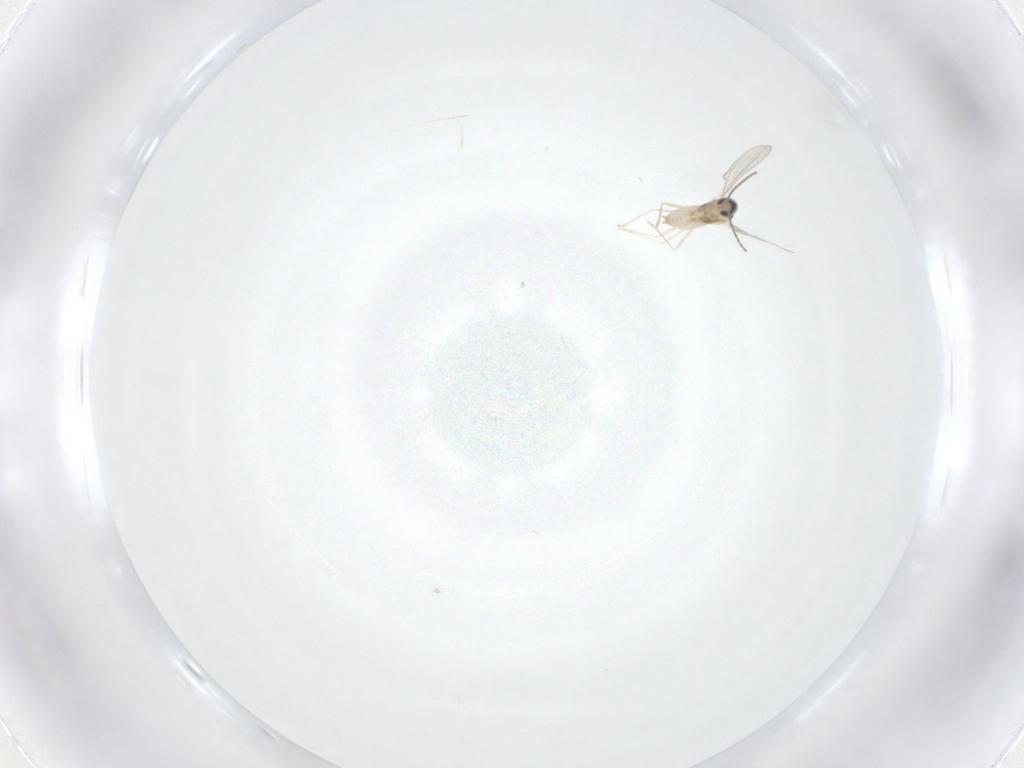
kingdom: Animalia
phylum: Arthropoda
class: Insecta
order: Diptera
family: Cecidomyiidae
